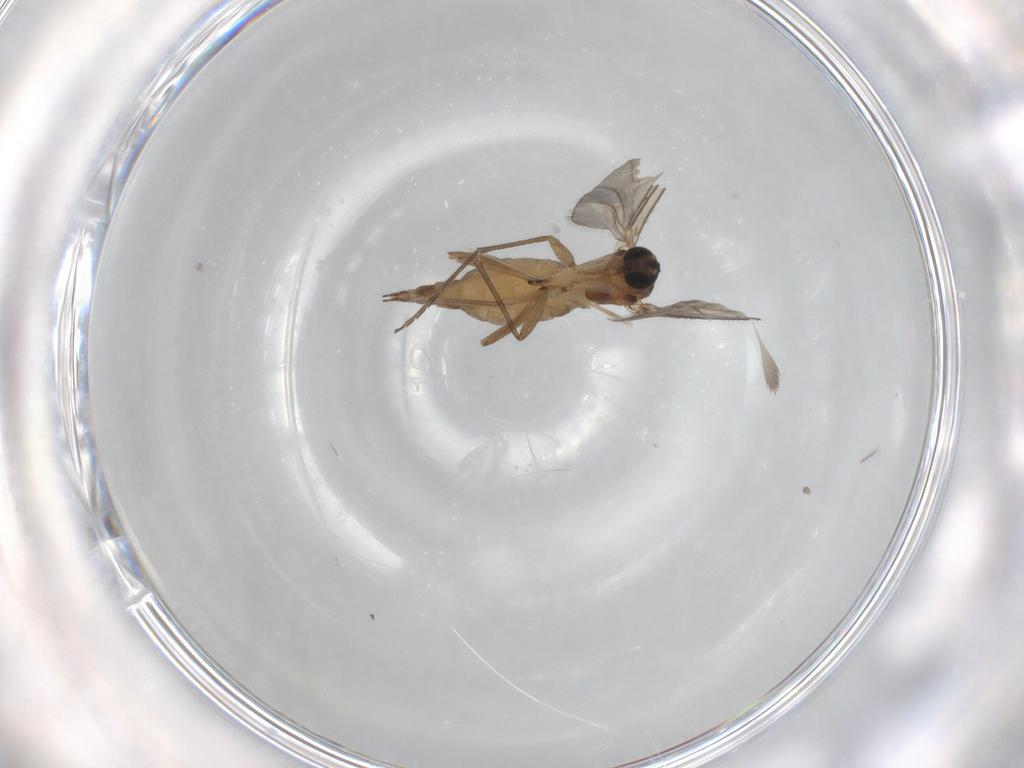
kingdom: Animalia
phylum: Arthropoda
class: Insecta
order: Diptera
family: Sciaridae
